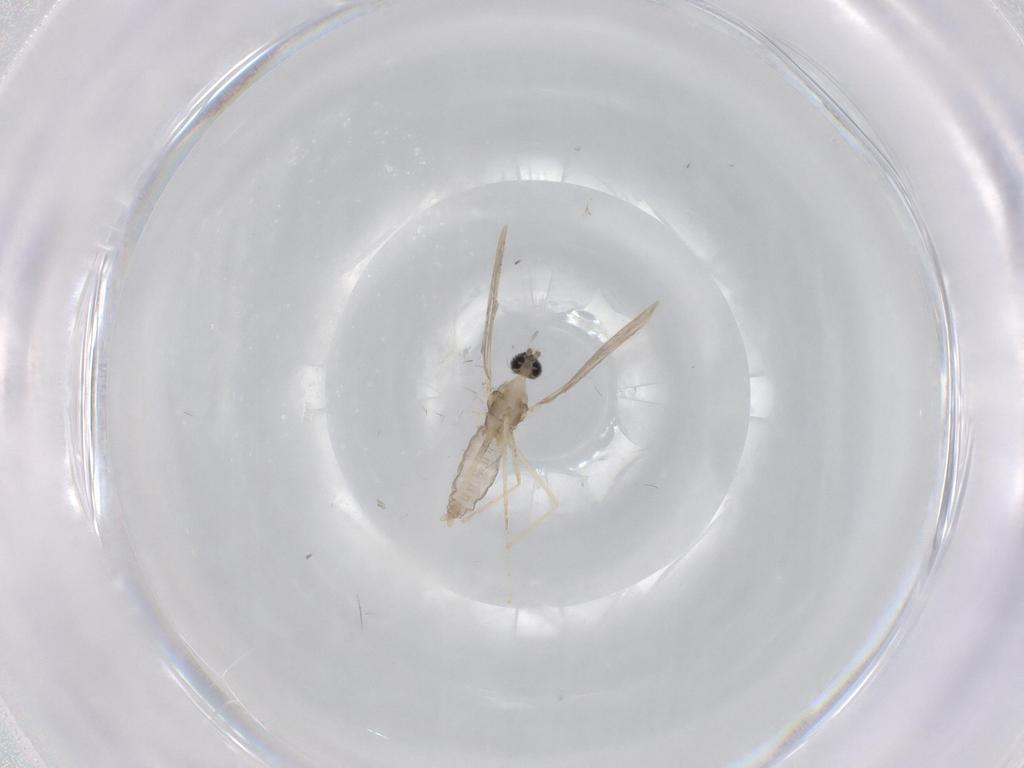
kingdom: Animalia
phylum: Arthropoda
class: Insecta
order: Diptera
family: Cecidomyiidae
